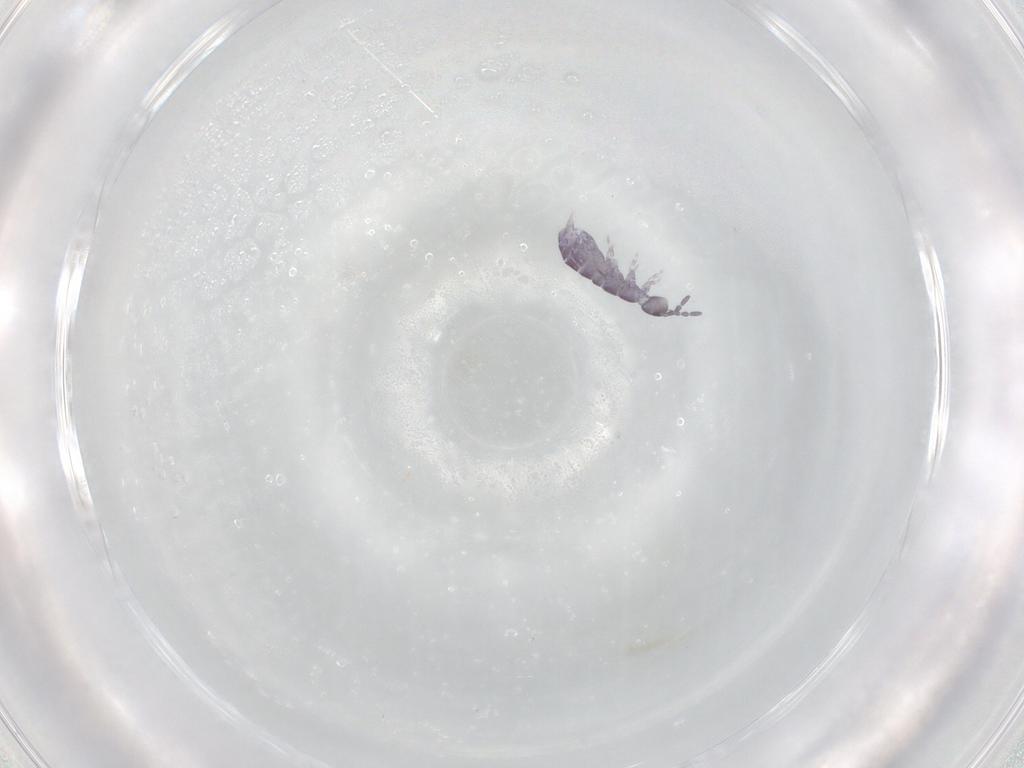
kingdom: Animalia
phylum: Arthropoda
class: Collembola
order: Entomobryomorpha
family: Isotomidae
